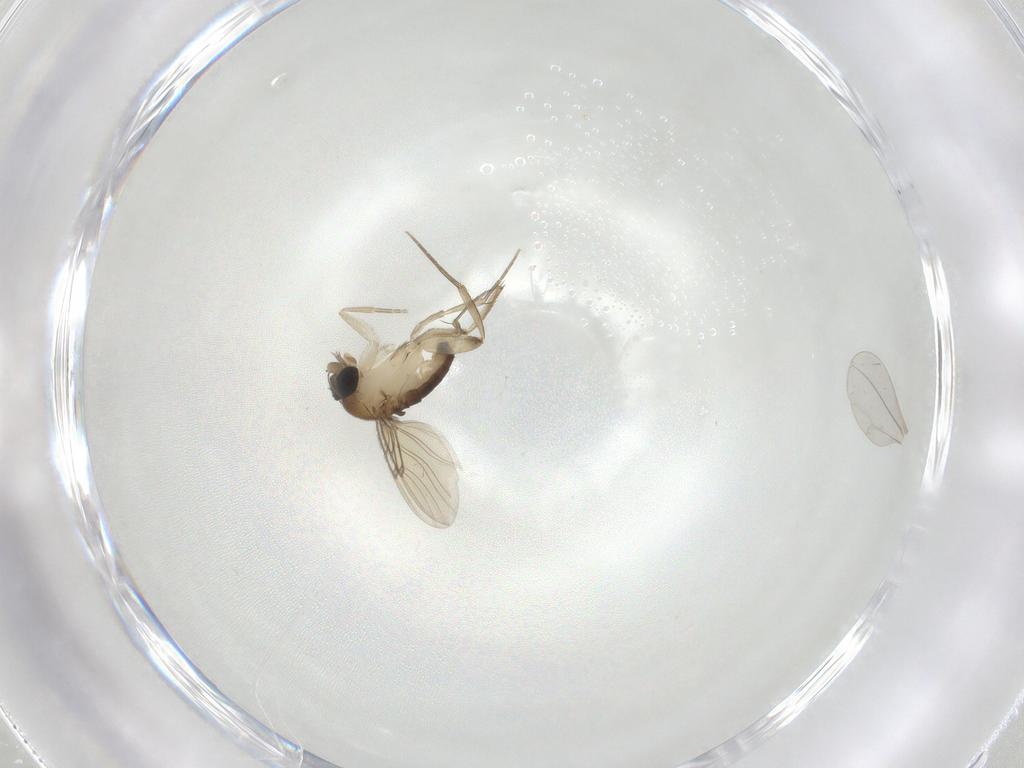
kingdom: Animalia
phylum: Arthropoda
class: Insecta
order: Diptera
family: Phoridae
